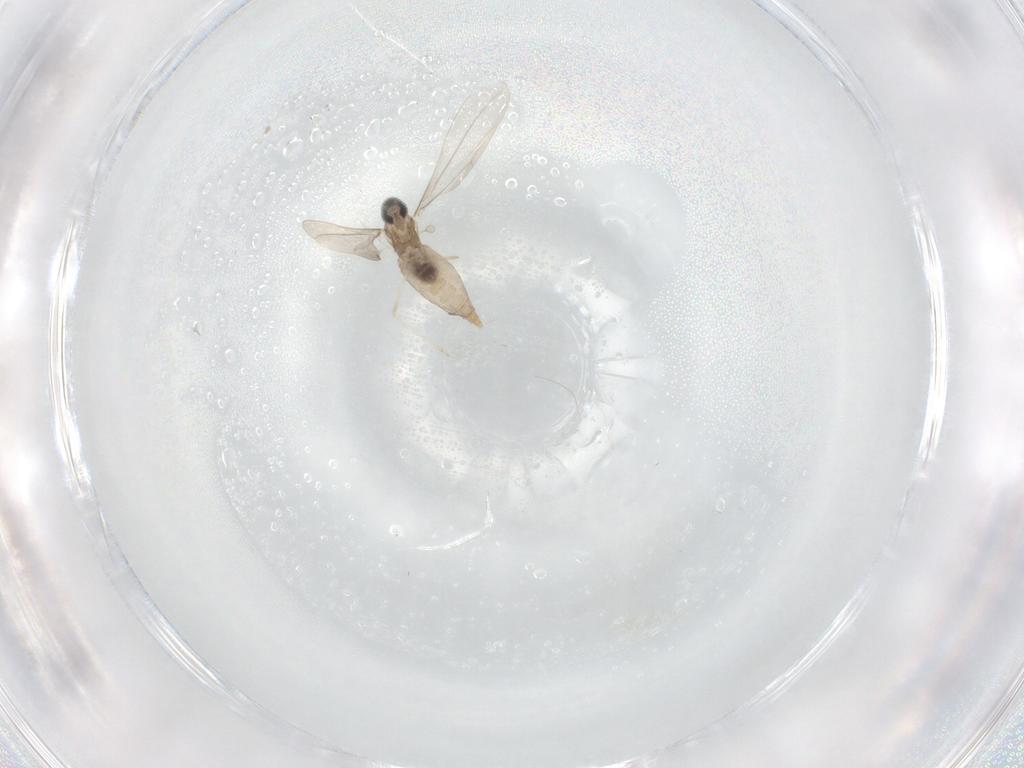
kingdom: Animalia
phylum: Arthropoda
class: Insecta
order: Diptera
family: Cecidomyiidae
